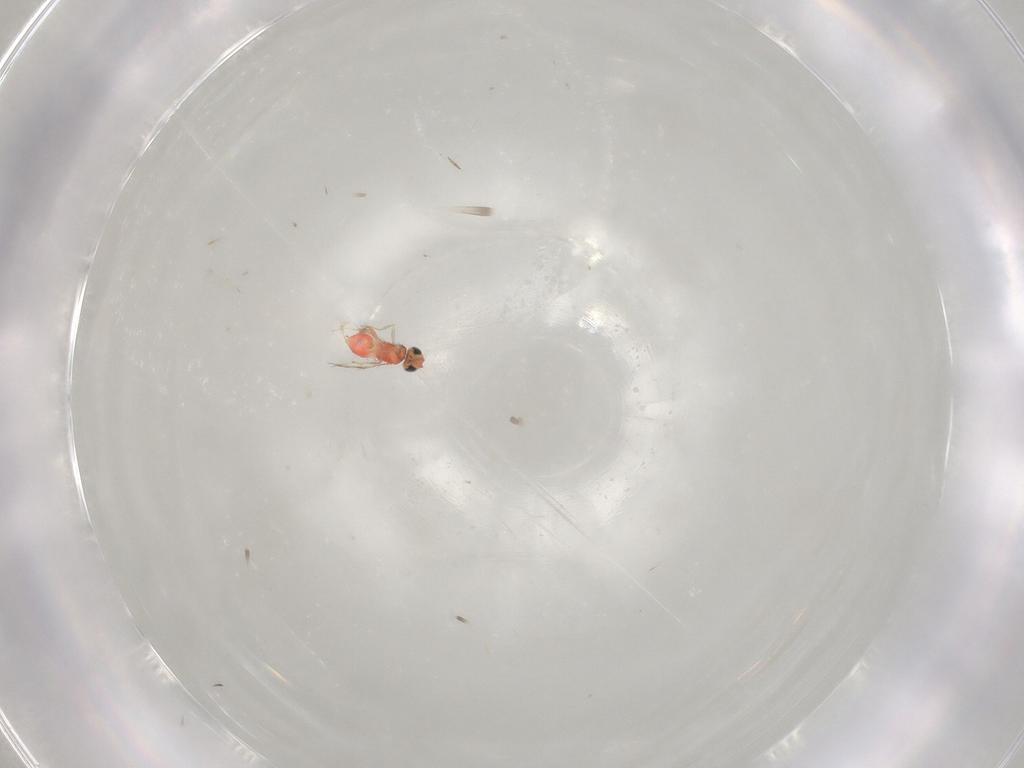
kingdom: Animalia
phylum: Arthropoda
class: Insecta
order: Hymenoptera
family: Trichogrammatidae
